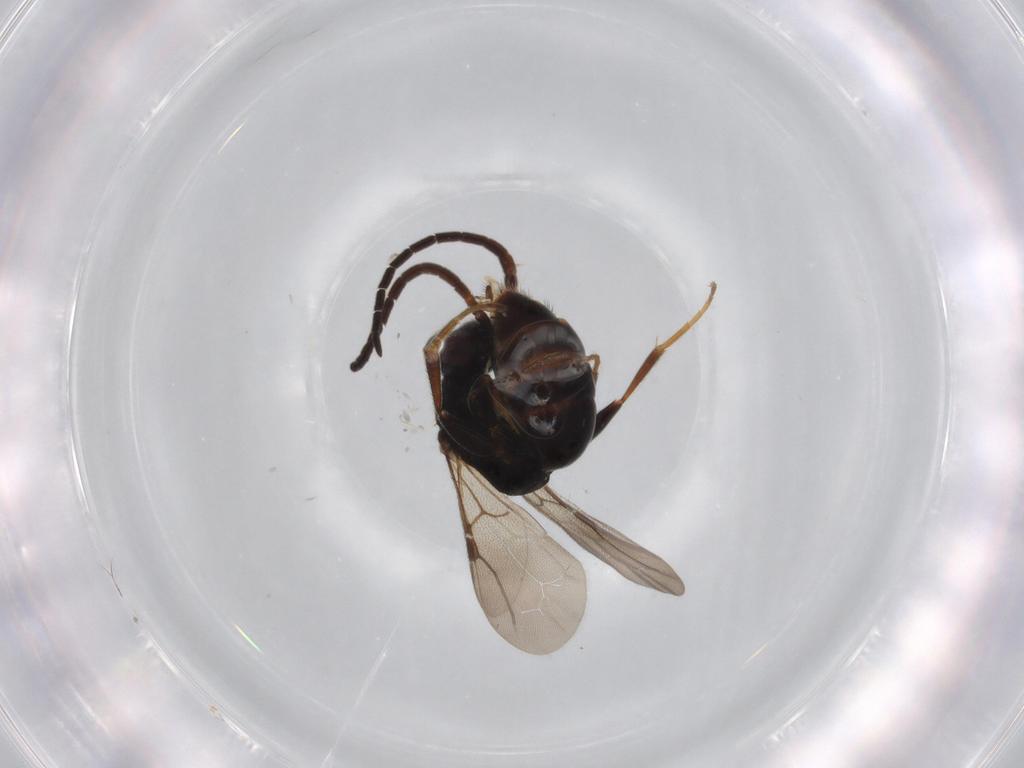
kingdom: Animalia
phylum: Arthropoda
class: Insecta
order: Hymenoptera
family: Bethylidae
